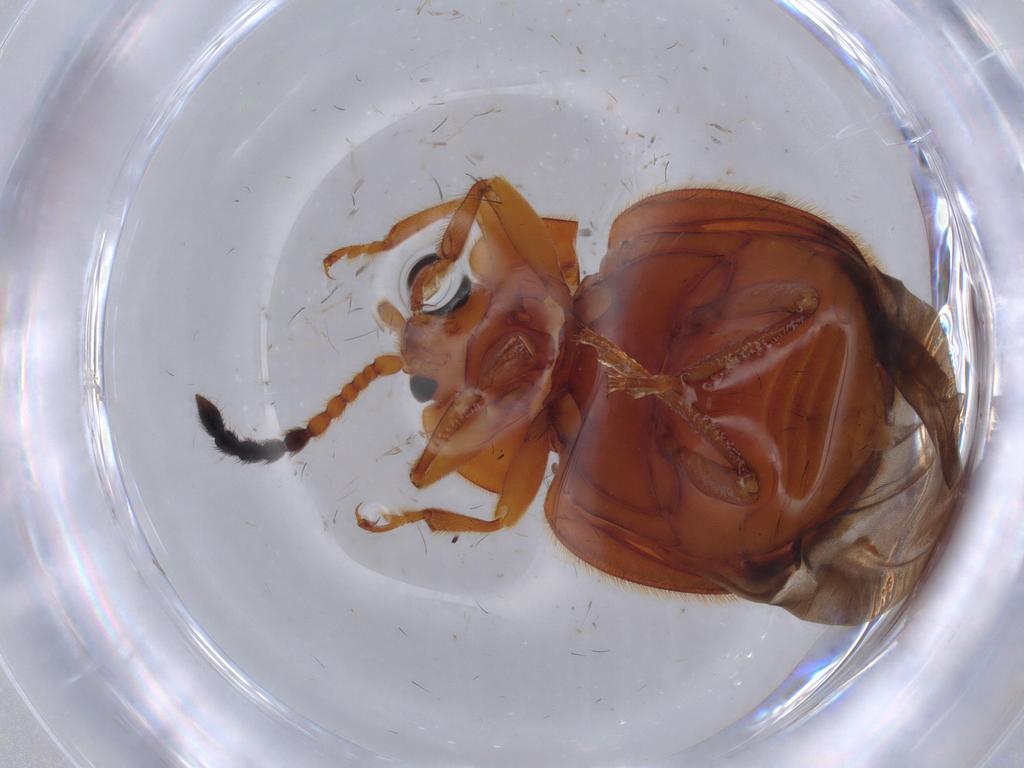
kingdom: Animalia
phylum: Arthropoda
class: Insecta
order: Coleoptera
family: Endomychidae
